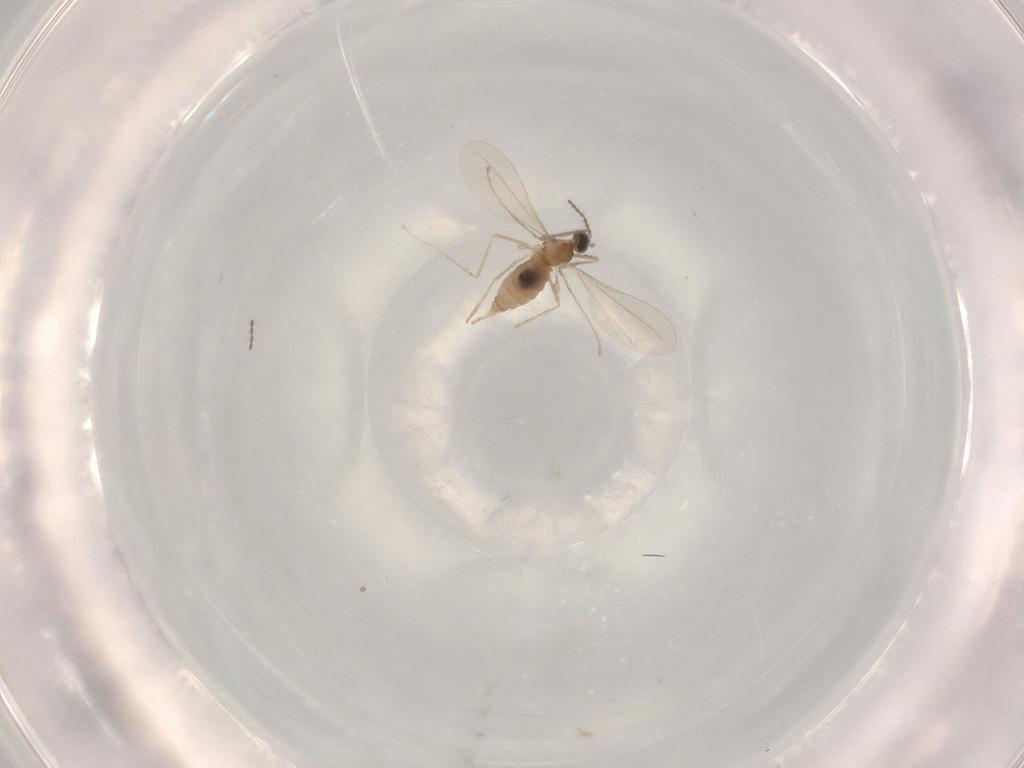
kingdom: Animalia
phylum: Arthropoda
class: Insecta
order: Diptera
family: Cecidomyiidae
